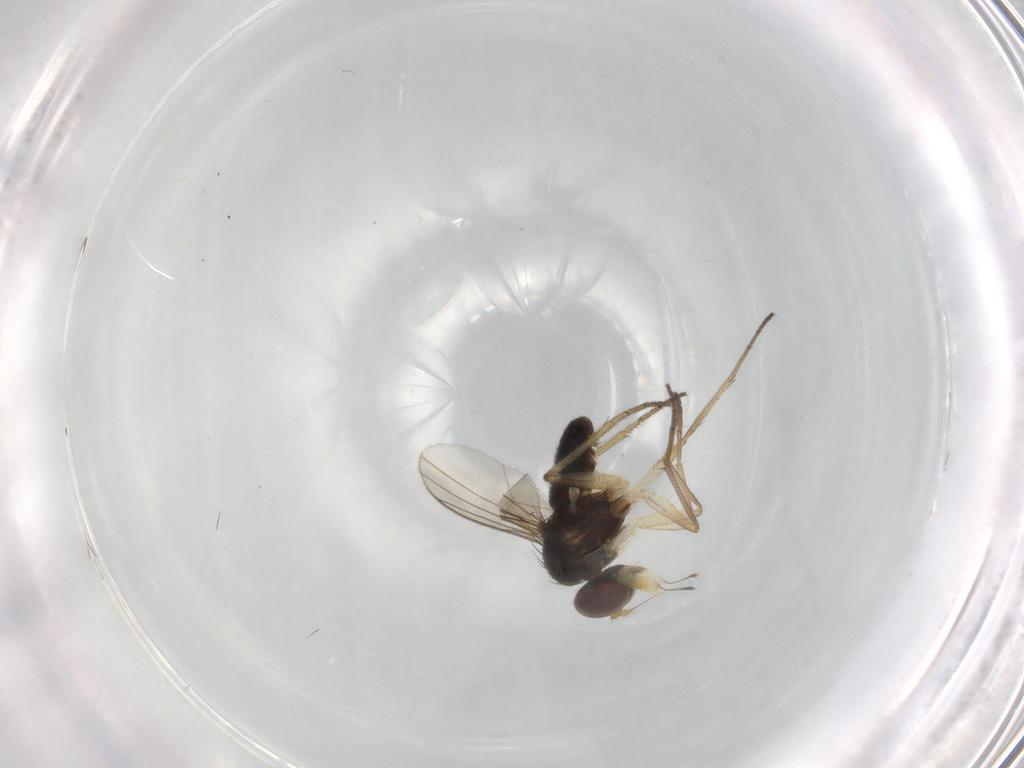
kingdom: Animalia
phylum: Arthropoda
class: Insecta
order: Diptera
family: Dolichopodidae
